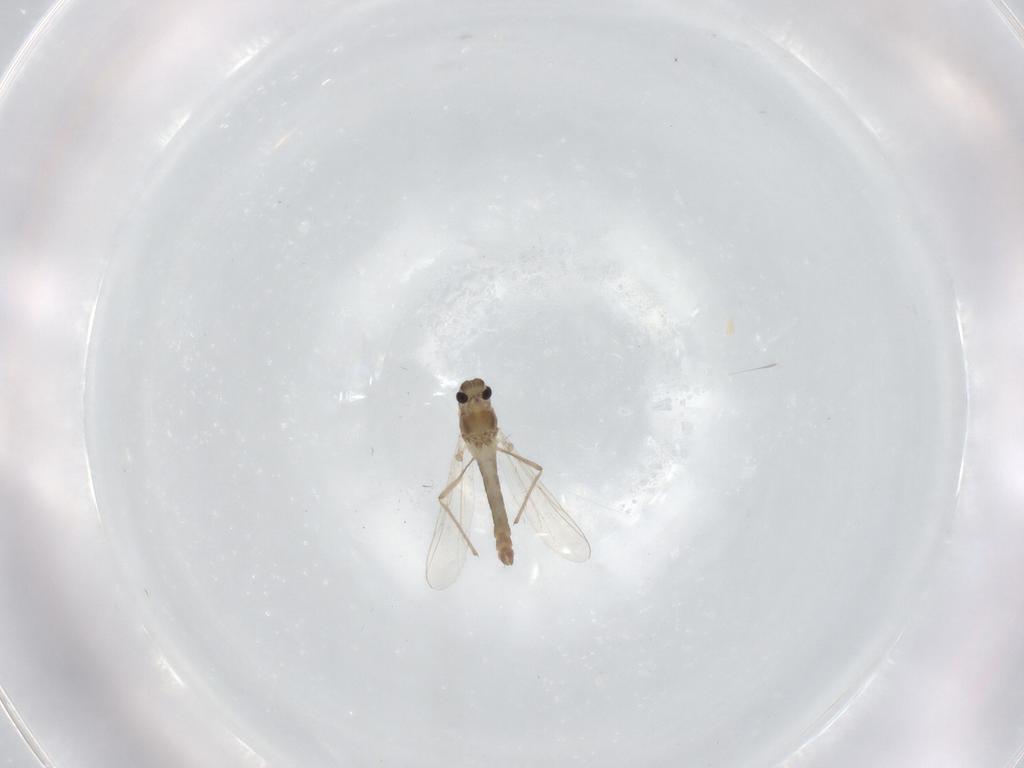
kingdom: Animalia
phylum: Arthropoda
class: Insecta
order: Diptera
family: Chironomidae
